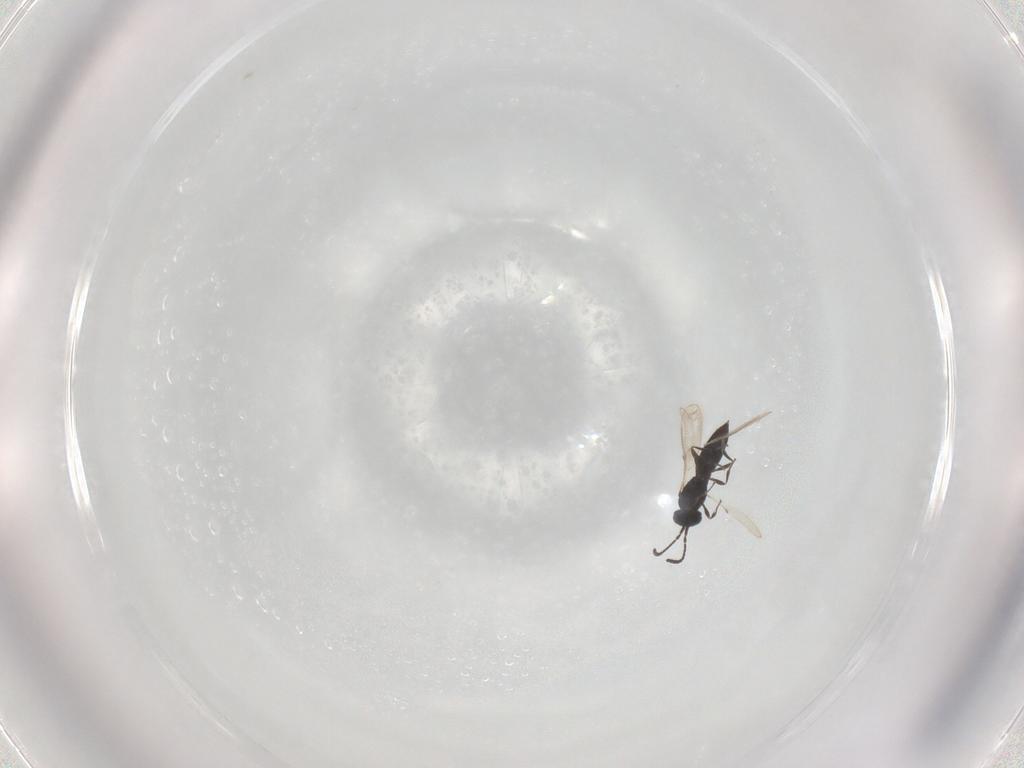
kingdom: Animalia
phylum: Arthropoda
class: Insecta
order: Hymenoptera
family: Scelionidae
